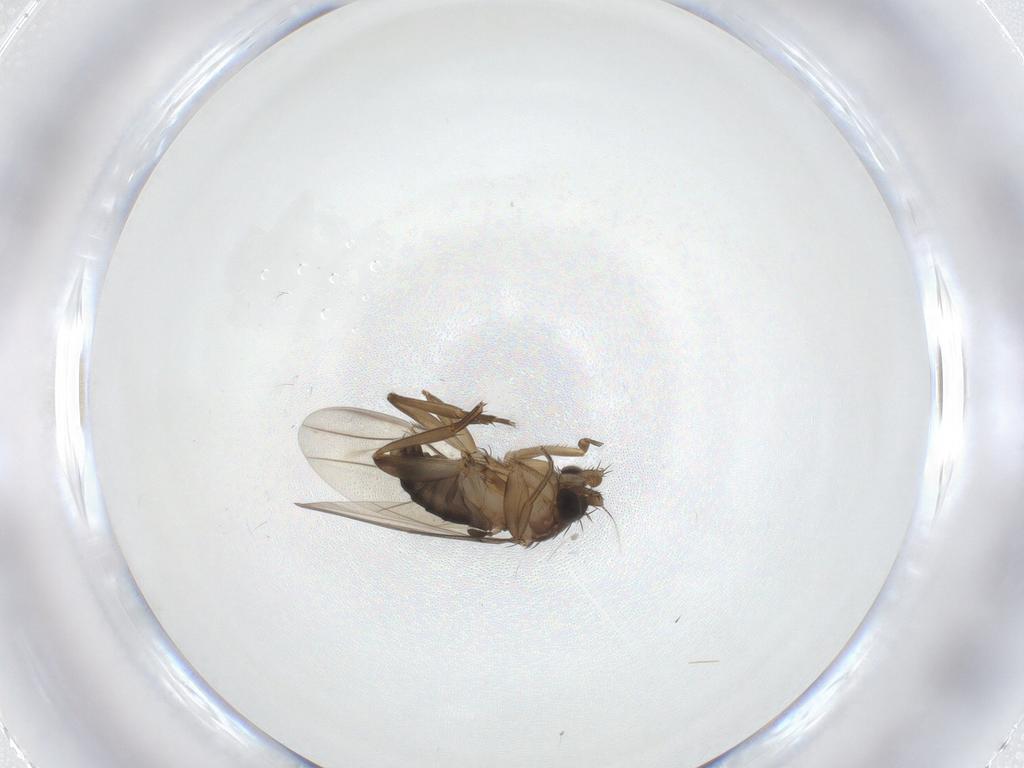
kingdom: Animalia
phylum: Arthropoda
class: Insecta
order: Diptera
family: Phoridae
